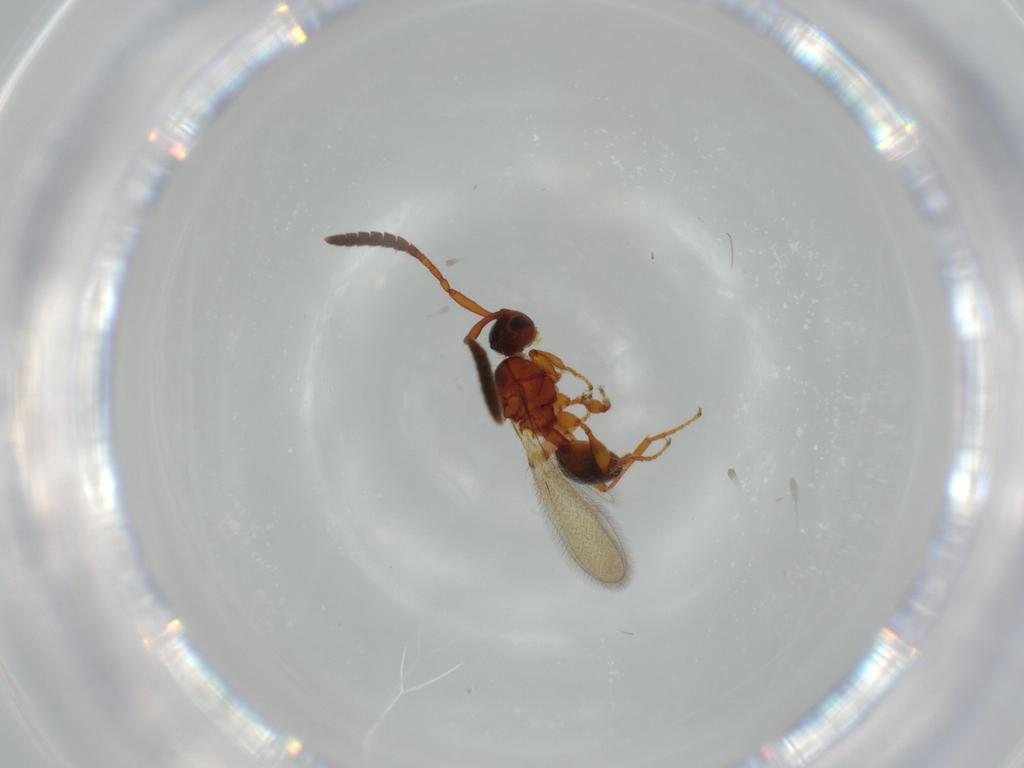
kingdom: Animalia
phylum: Arthropoda
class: Insecta
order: Hymenoptera
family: Diapriidae
